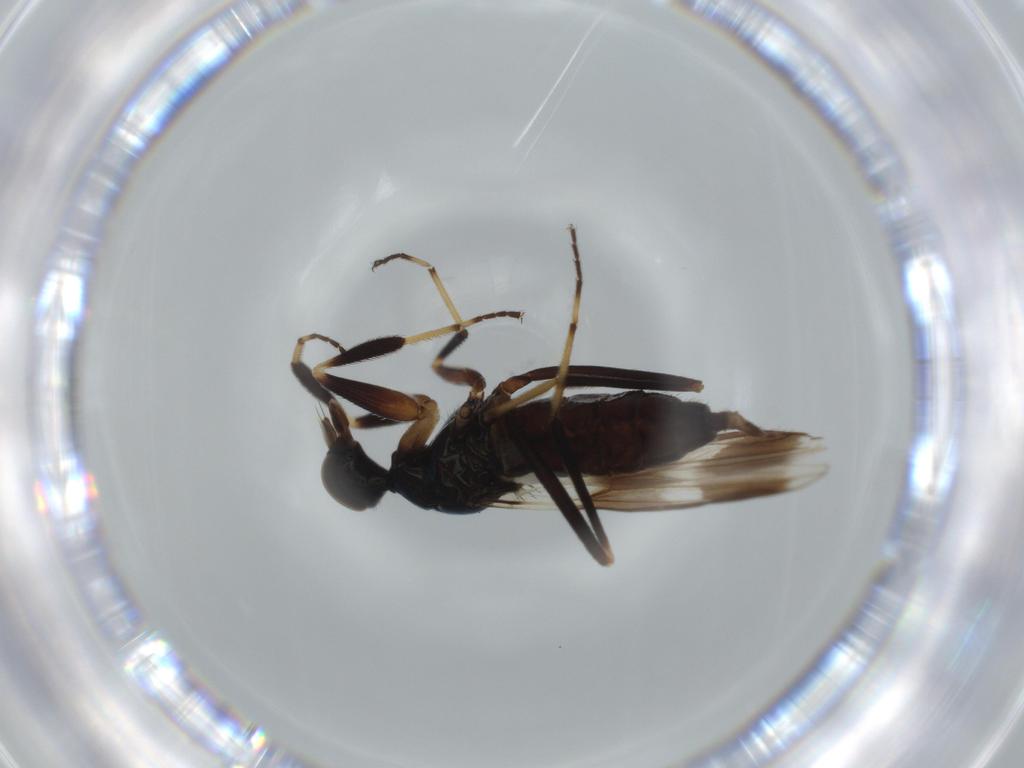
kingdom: Animalia
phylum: Arthropoda
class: Insecta
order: Diptera
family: Hybotidae
